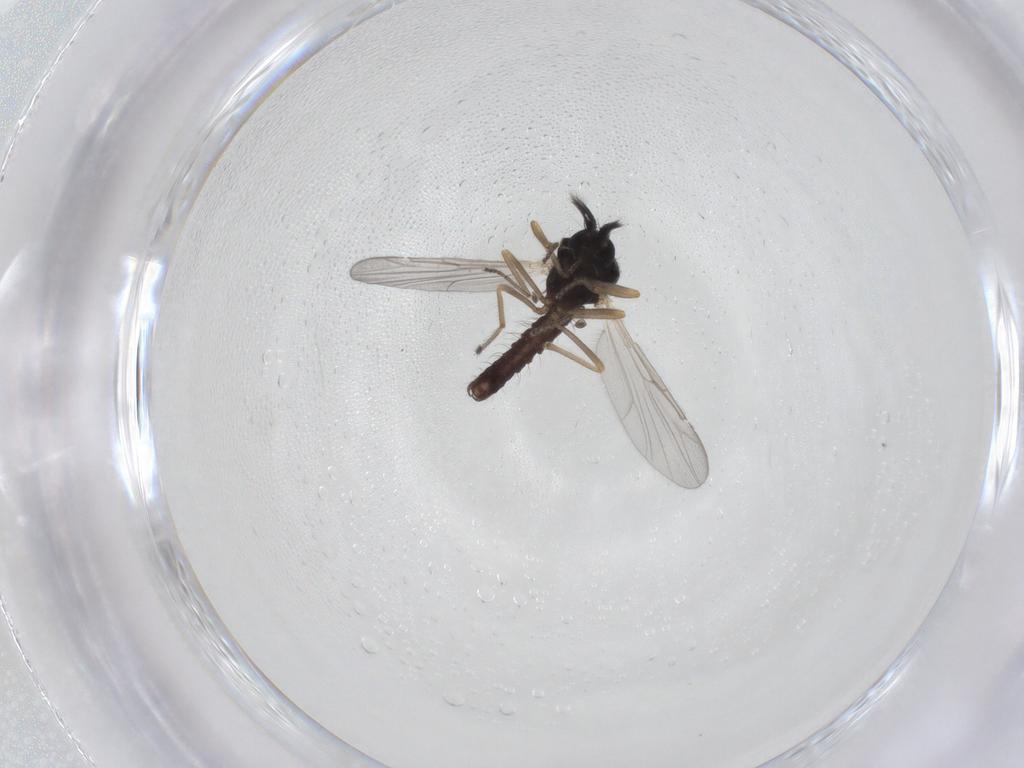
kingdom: Animalia
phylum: Arthropoda
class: Insecta
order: Diptera
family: Ceratopogonidae
